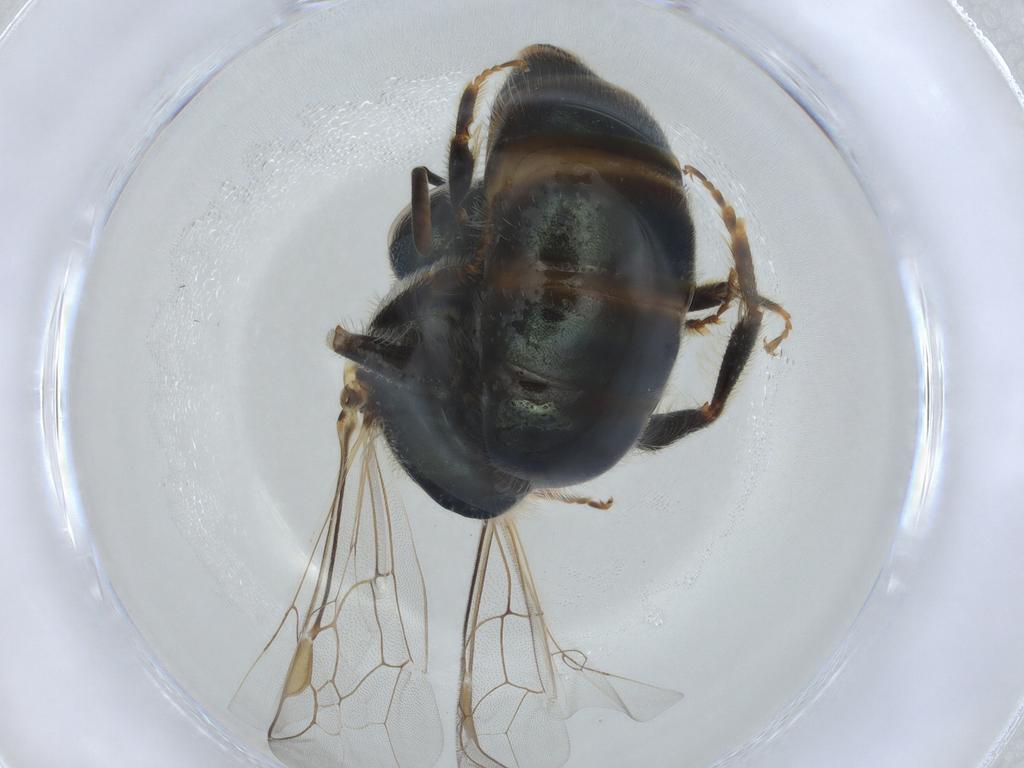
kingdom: Animalia
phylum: Arthropoda
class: Insecta
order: Hymenoptera
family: Halictidae
